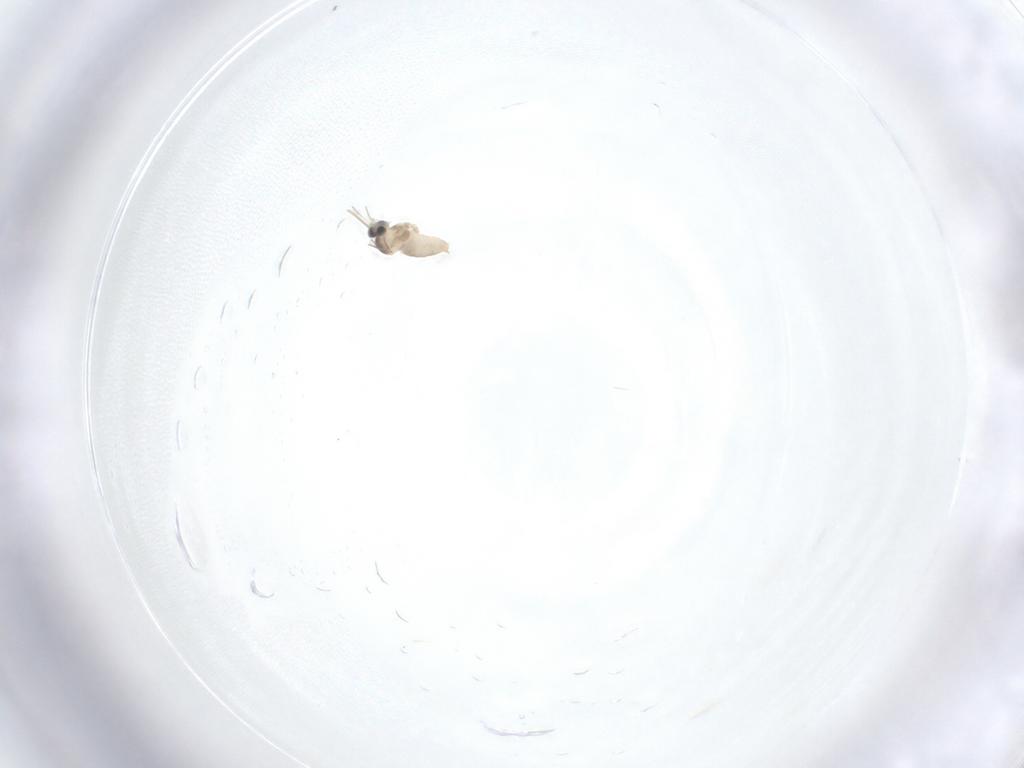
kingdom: Animalia
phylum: Arthropoda
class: Insecta
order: Diptera
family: Cecidomyiidae
